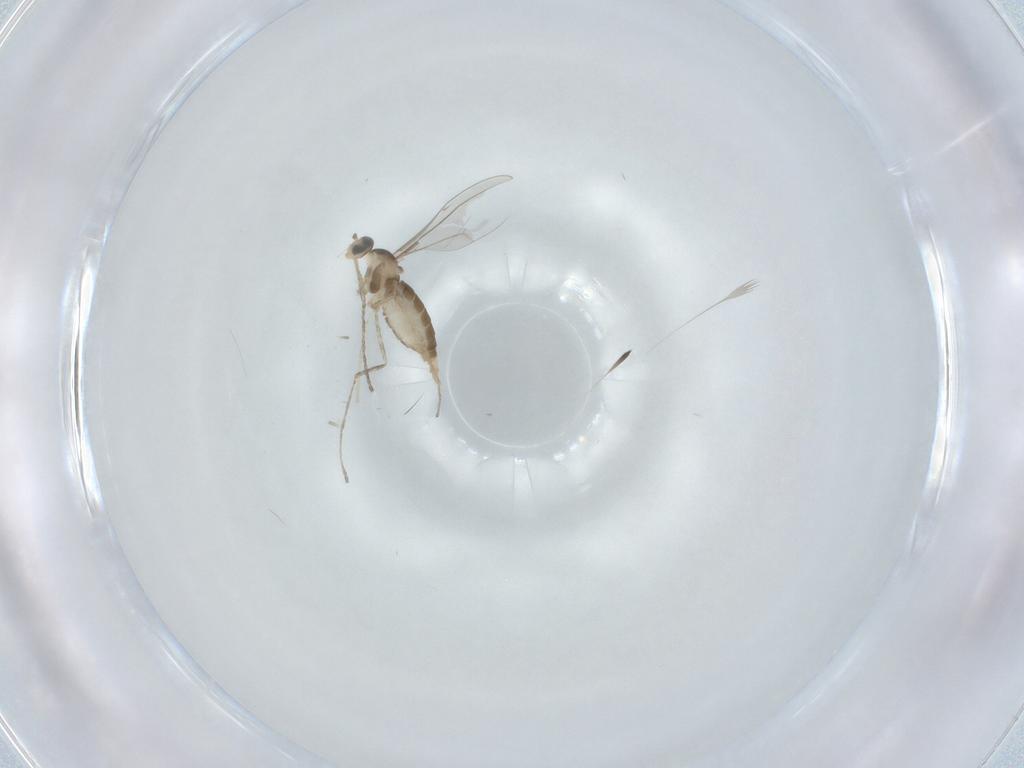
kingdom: Animalia
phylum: Arthropoda
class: Insecta
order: Diptera
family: Cecidomyiidae
